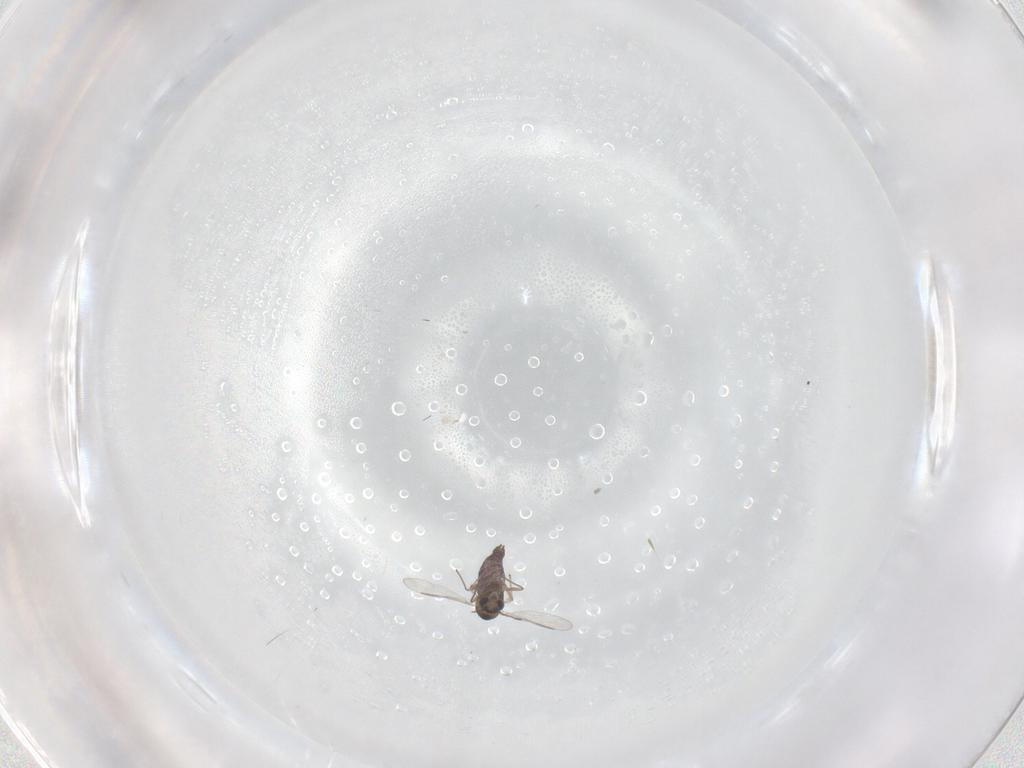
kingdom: Animalia
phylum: Arthropoda
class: Insecta
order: Diptera
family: Chironomidae
